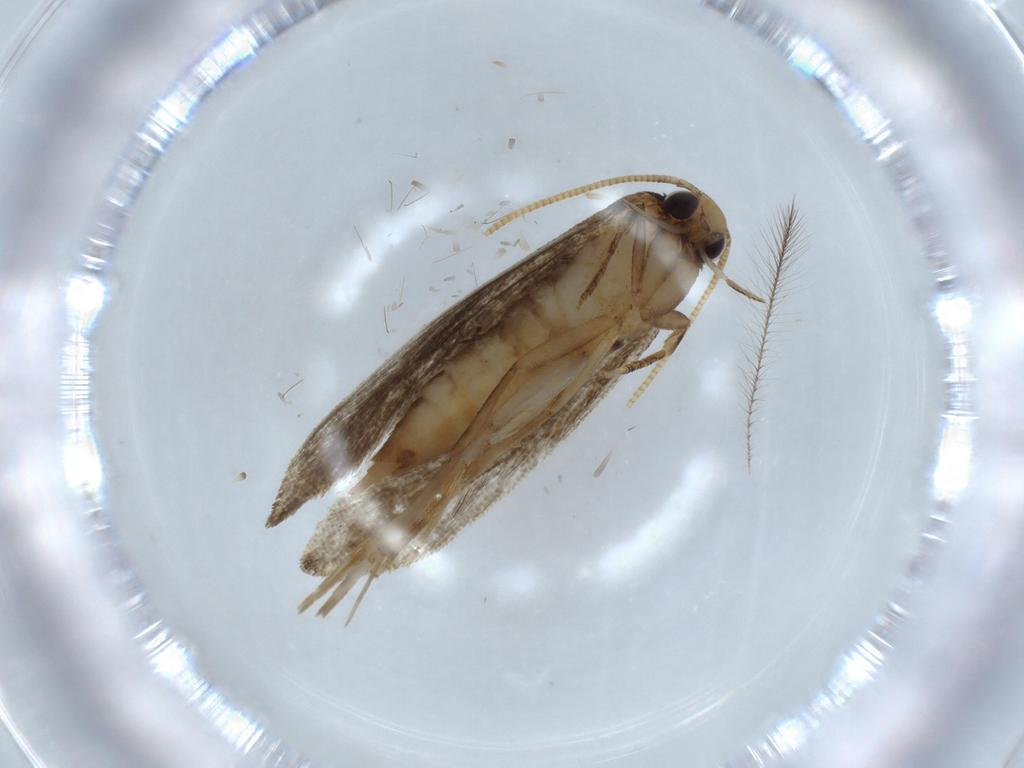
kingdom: Animalia
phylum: Arthropoda
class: Insecta
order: Lepidoptera
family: Tineidae
